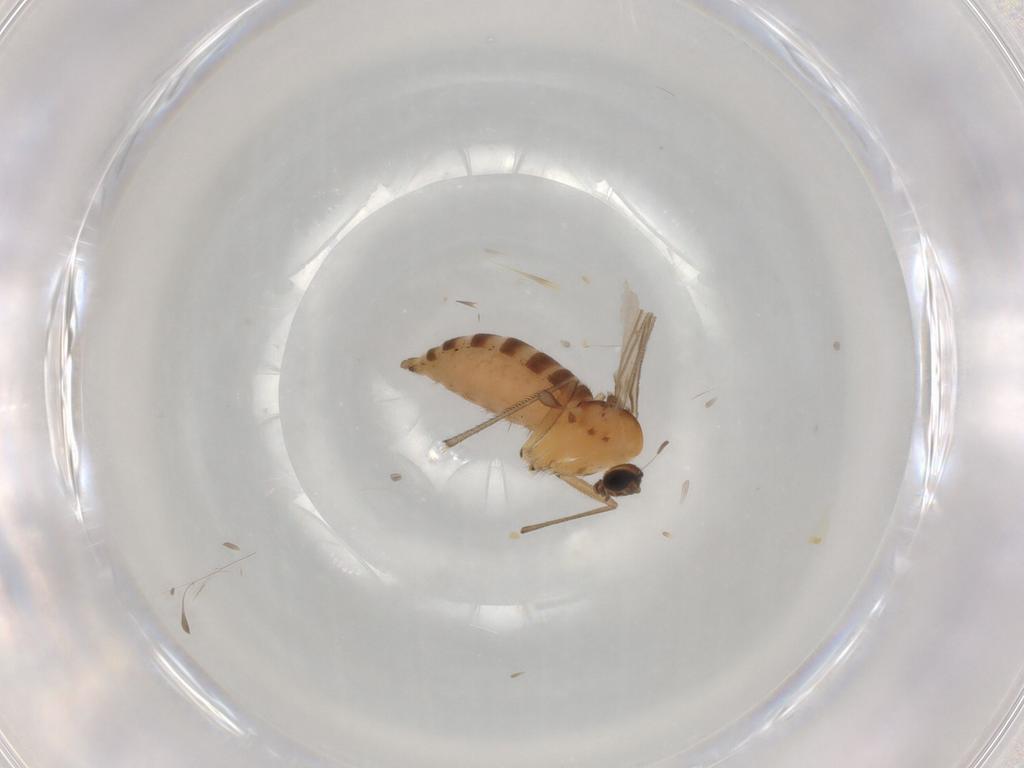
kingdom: Animalia
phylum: Arthropoda
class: Insecta
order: Diptera
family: Sciaridae
